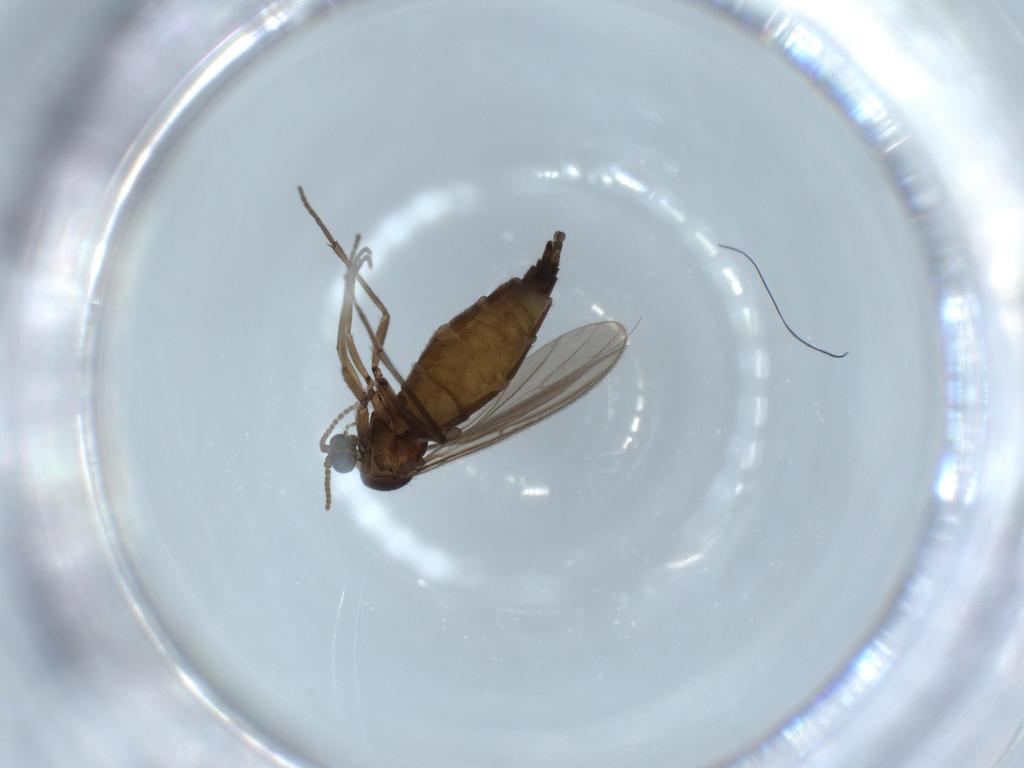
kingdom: Animalia
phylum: Arthropoda
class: Insecta
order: Diptera
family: Sciaridae
